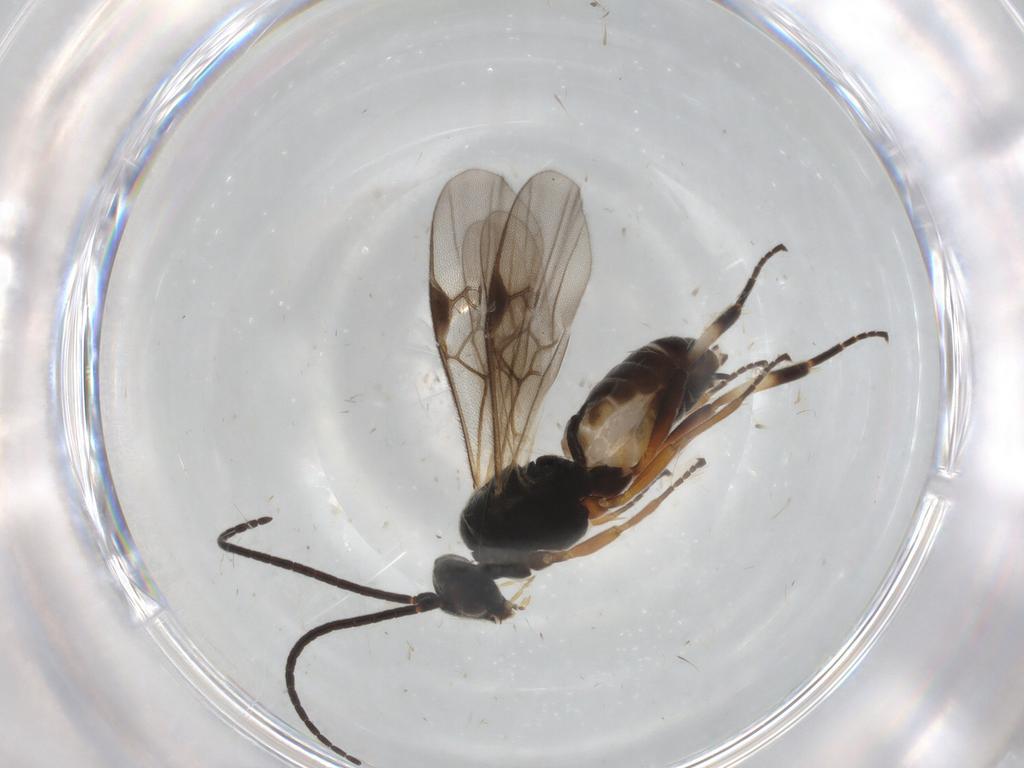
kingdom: Animalia
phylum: Arthropoda
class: Insecta
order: Hymenoptera
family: Braconidae
